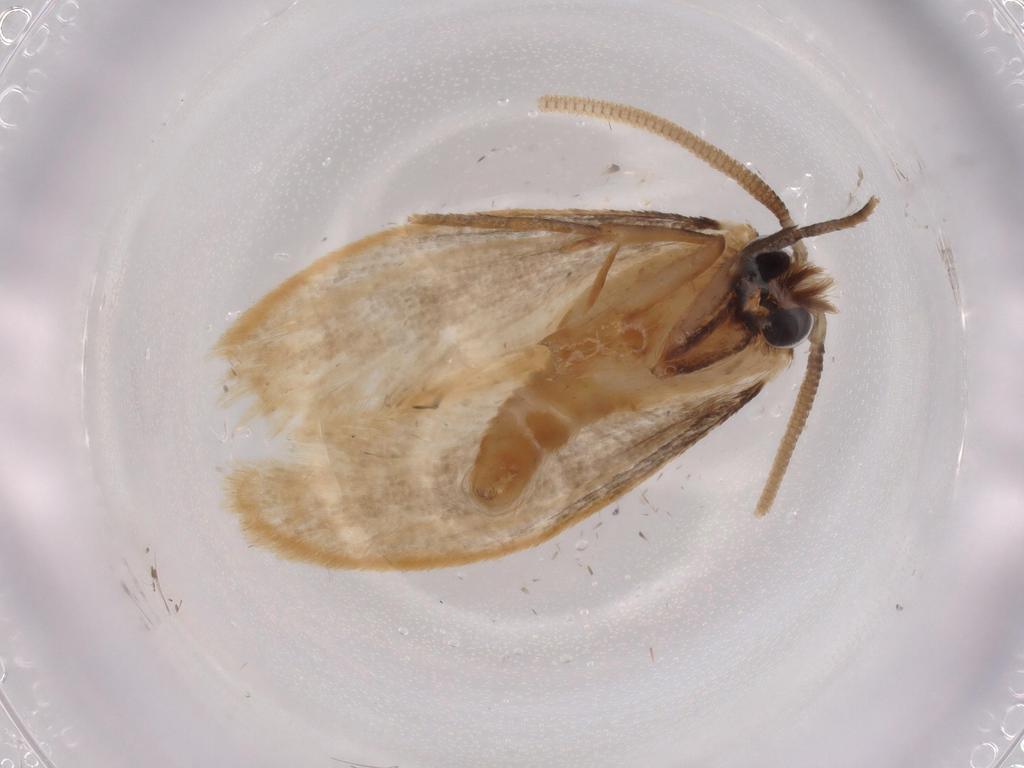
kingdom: Animalia
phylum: Arthropoda
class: Insecta
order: Lepidoptera
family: Tineidae
